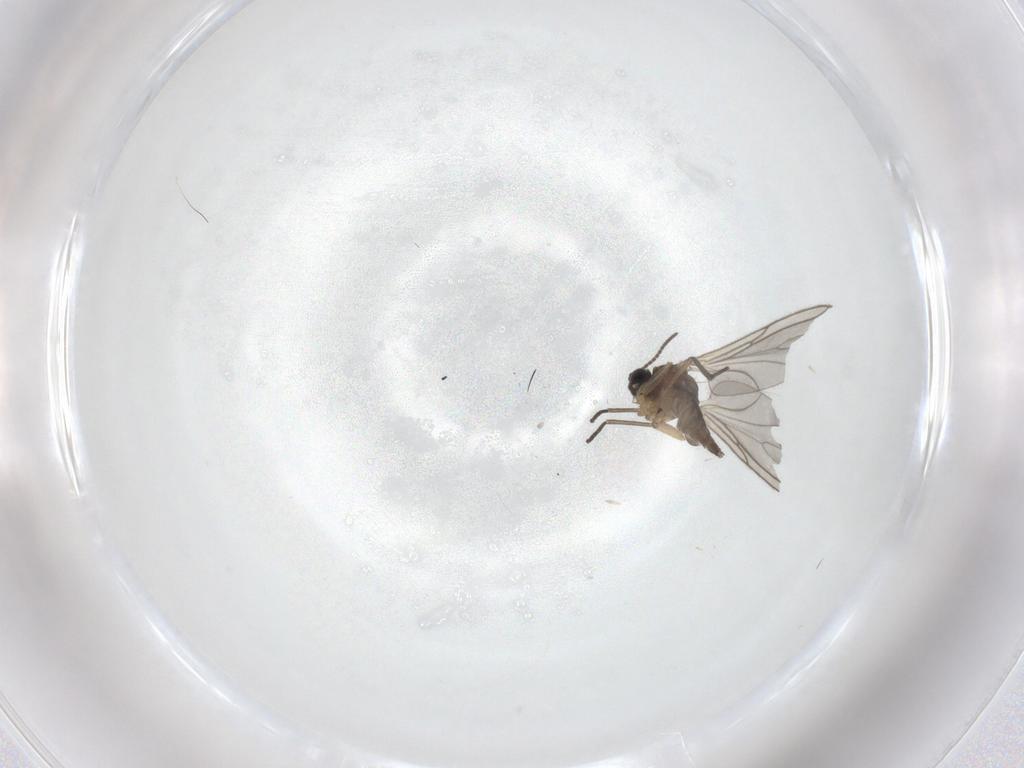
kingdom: Animalia
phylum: Arthropoda
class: Insecta
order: Diptera
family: Sciaridae
